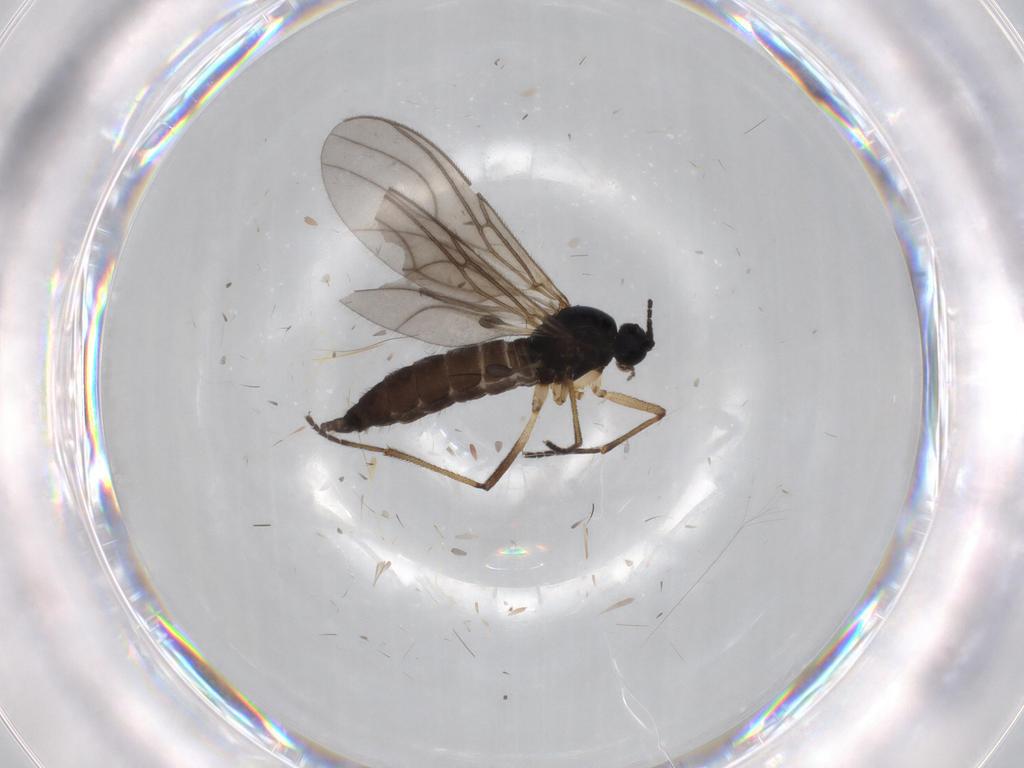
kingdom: Animalia
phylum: Arthropoda
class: Insecta
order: Diptera
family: Sciaridae
